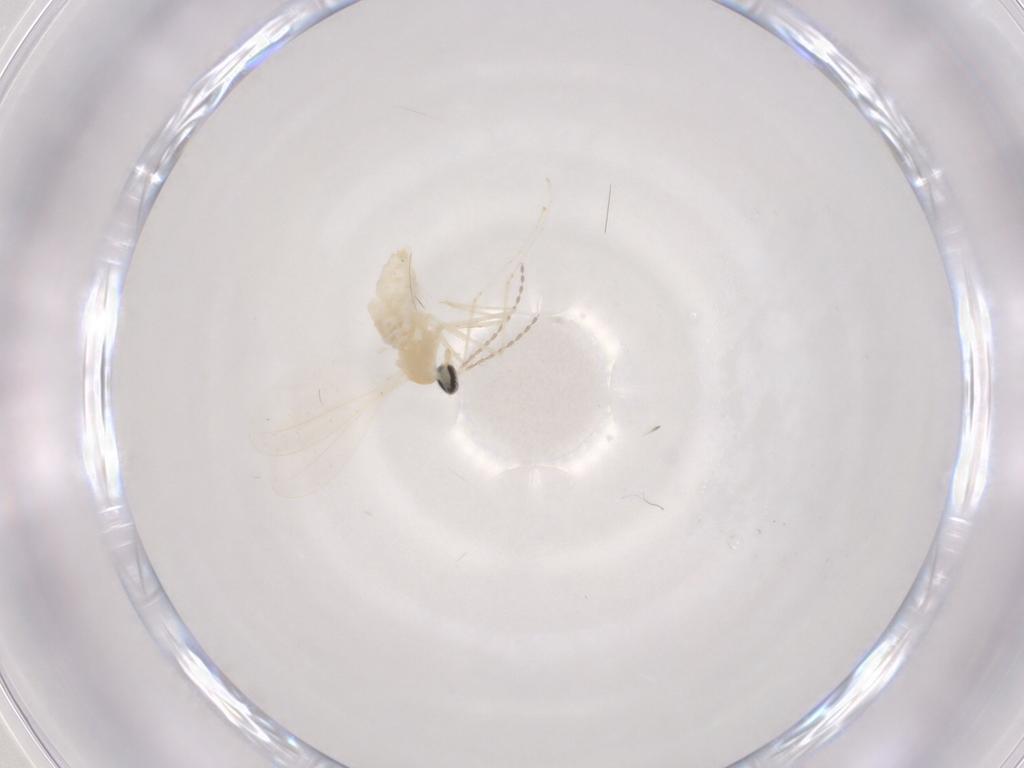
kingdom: Animalia
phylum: Arthropoda
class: Insecta
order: Diptera
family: Cecidomyiidae
